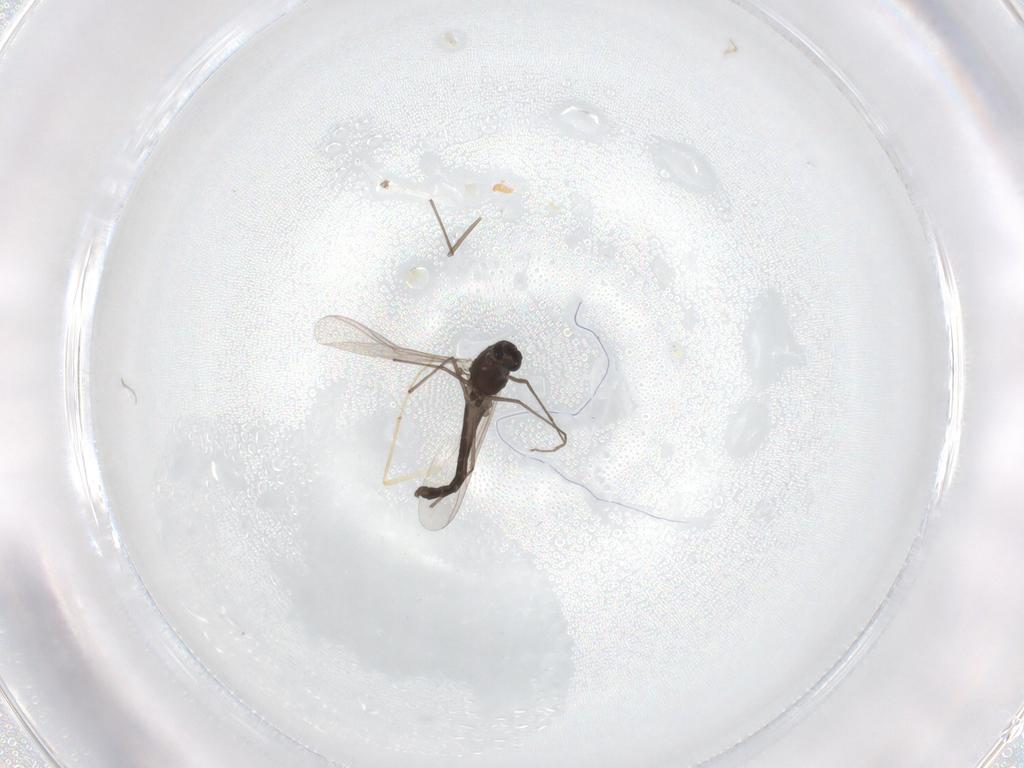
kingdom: Animalia
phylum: Arthropoda
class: Insecta
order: Diptera
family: Chironomidae
